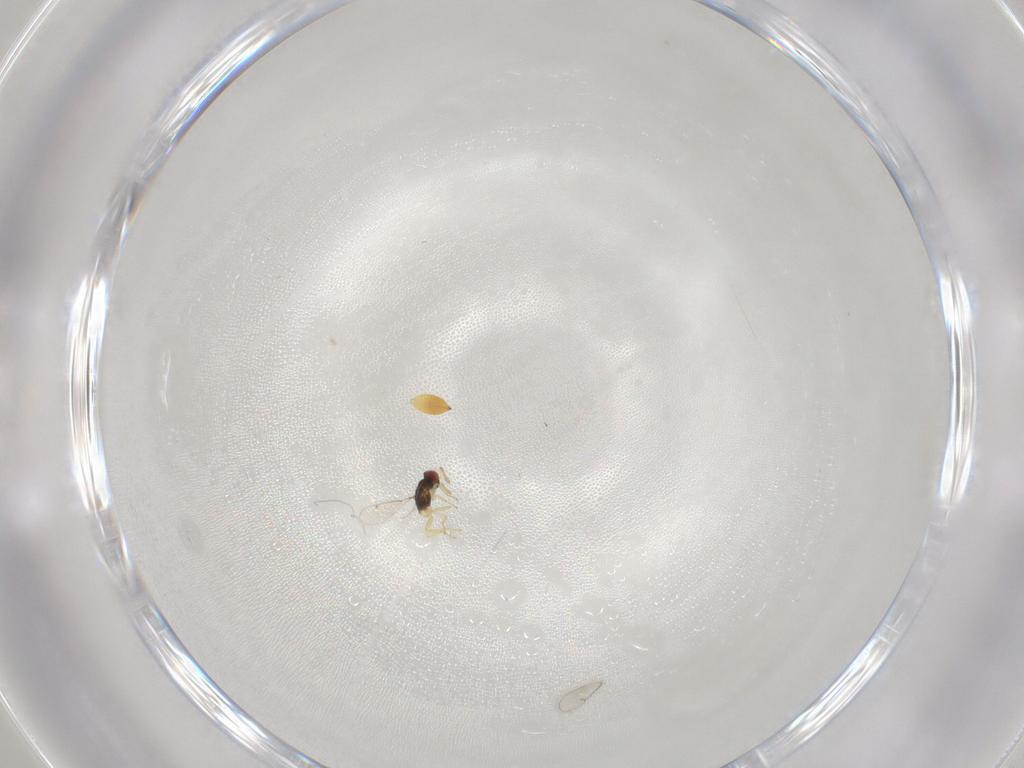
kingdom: Animalia
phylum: Arthropoda
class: Insecta
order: Hymenoptera
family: Eulophidae
